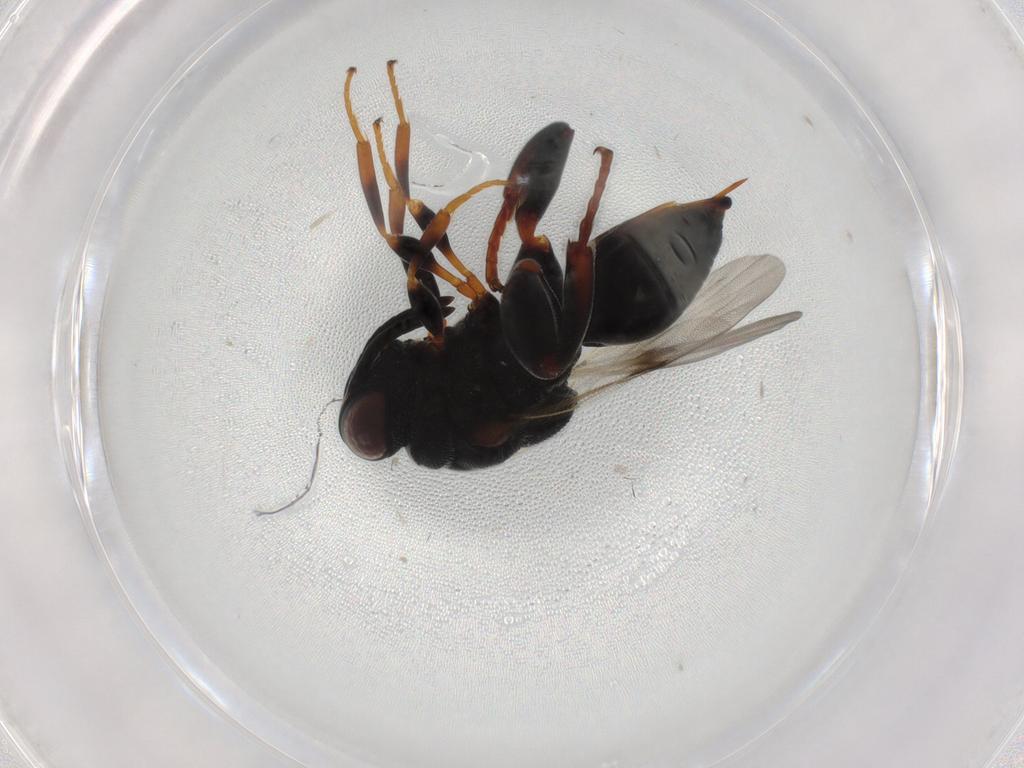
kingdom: Animalia
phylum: Arthropoda
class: Insecta
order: Hymenoptera
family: Chalcididae
